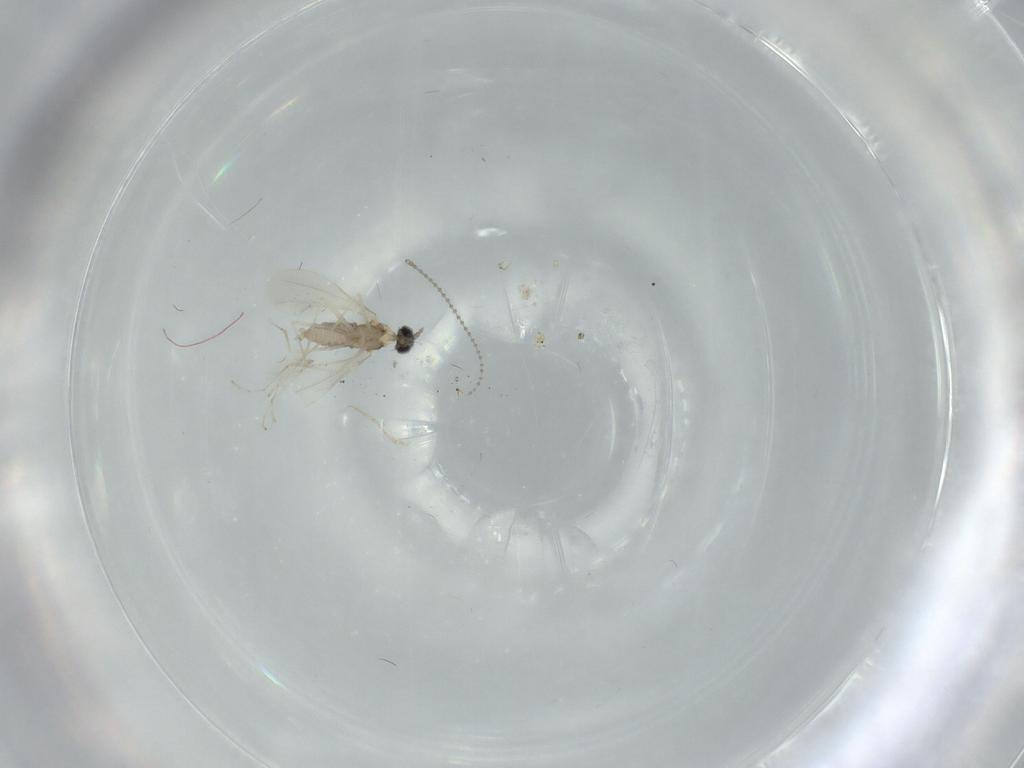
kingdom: Animalia
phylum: Arthropoda
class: Insecta
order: Diptera
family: Cecidomyiidae
